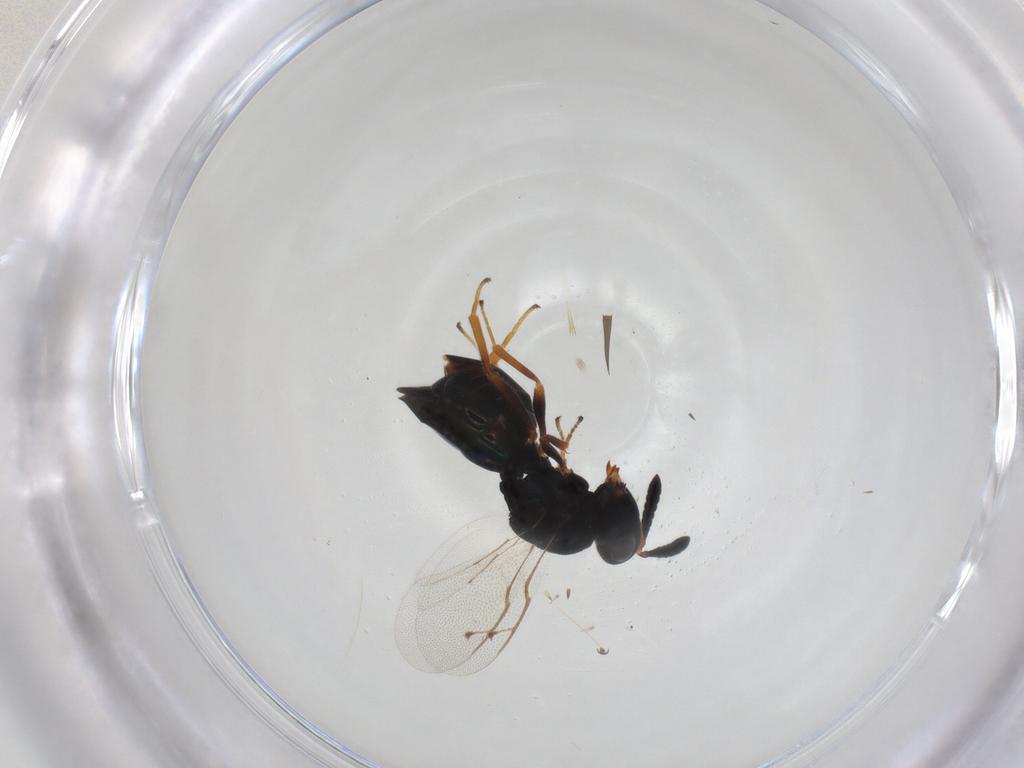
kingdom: Animalia
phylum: Arthropoda
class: Insecta
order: Hymenoptera
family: Pteromalidae
